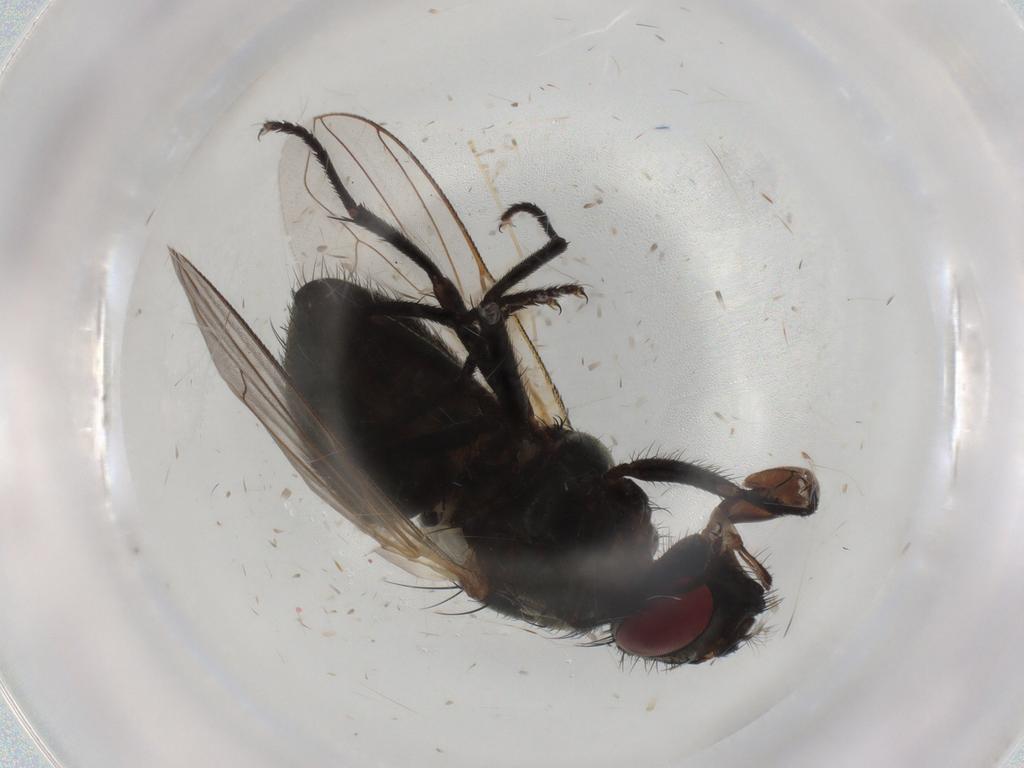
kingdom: Animalia
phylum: Arthropoda
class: Insecta
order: Diptera
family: Muscidae
